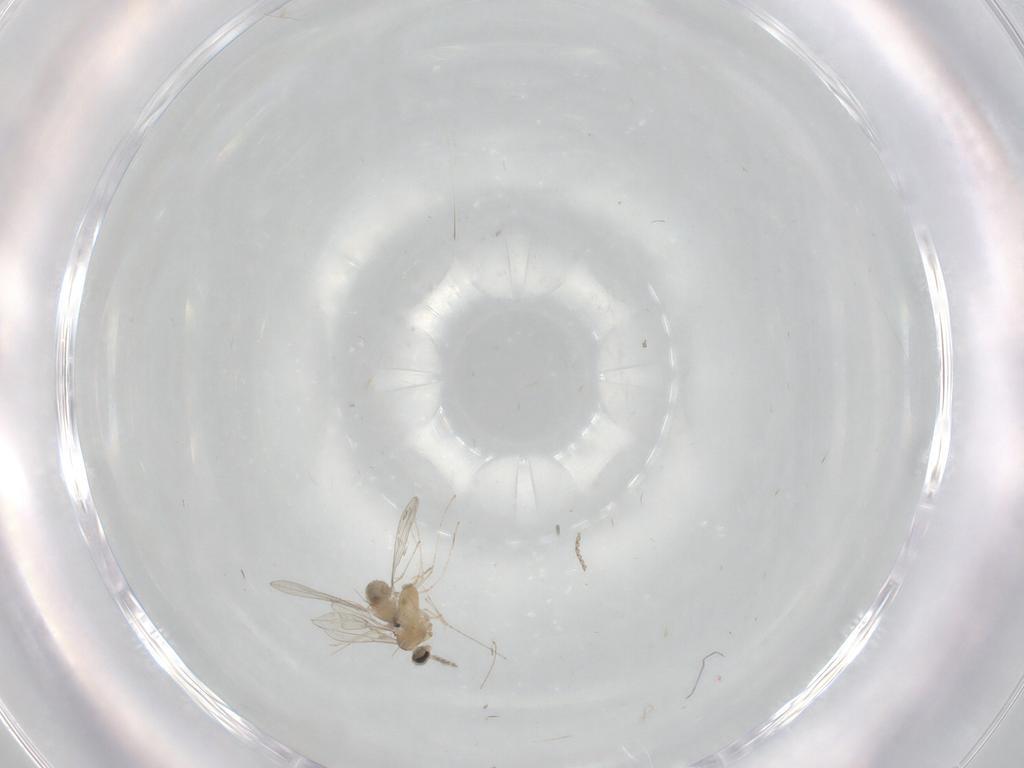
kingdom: Animalia
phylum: Arthropoda
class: Insecta
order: Diptera
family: Cecidomyiidae
